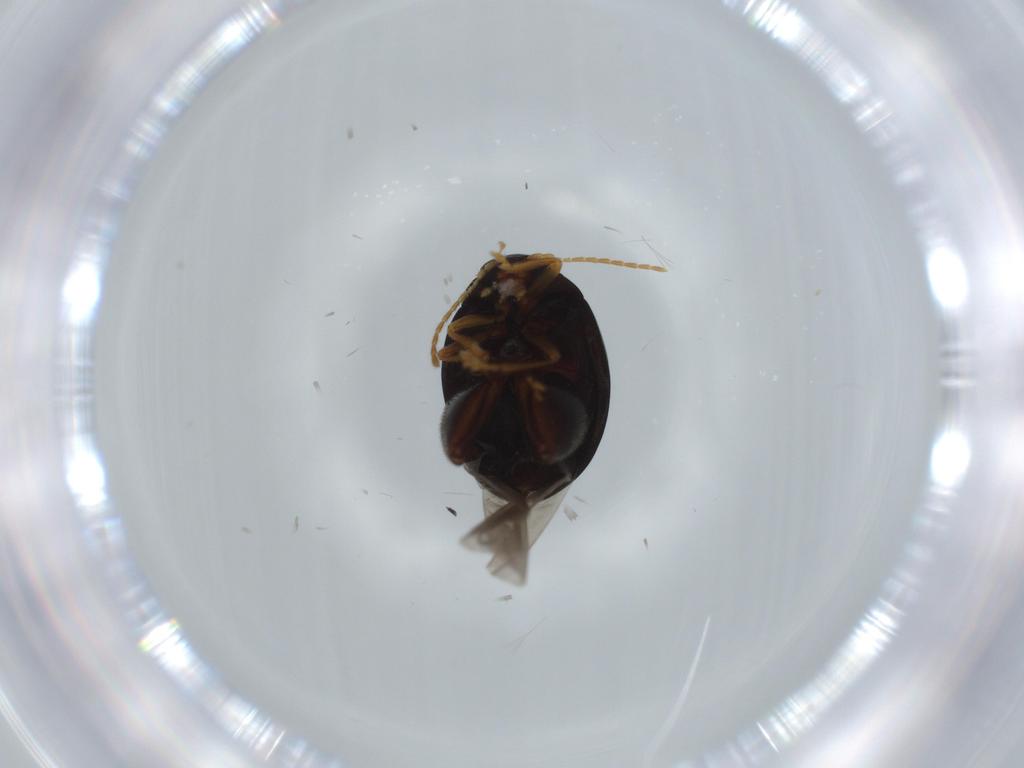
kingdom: Animalia
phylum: Arthropoda
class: Insecta
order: Coleoptera
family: Chrysomelidae
